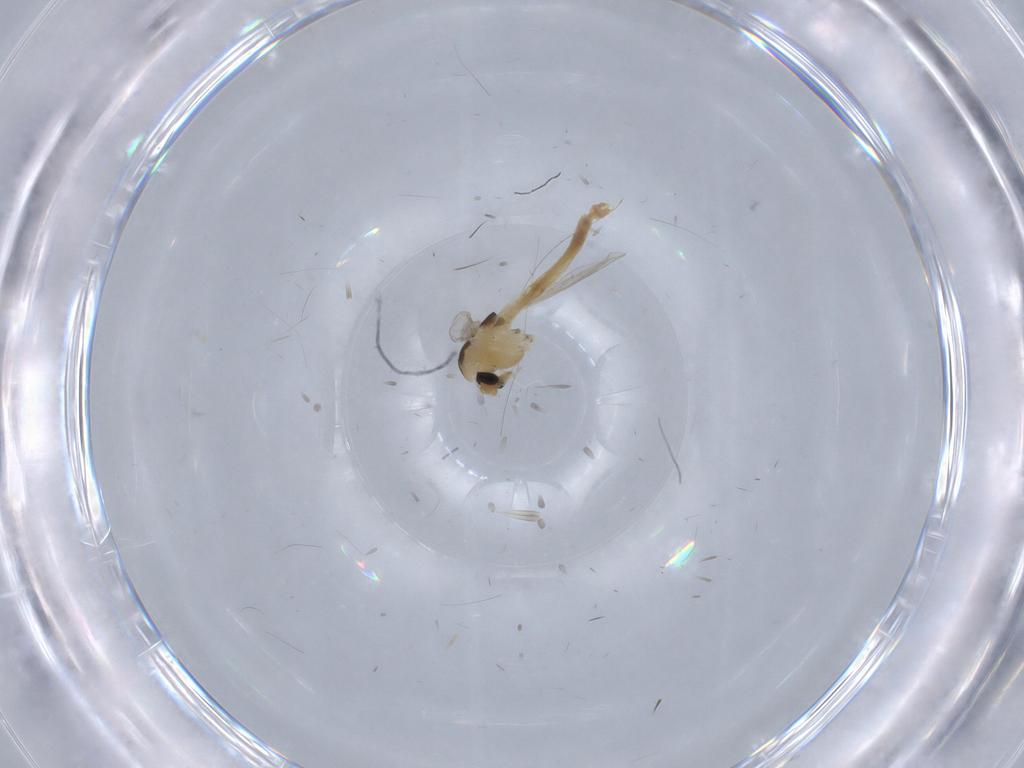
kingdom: Animalia
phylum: Arthropoda
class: Insecta
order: Diptera
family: Chironomidae
